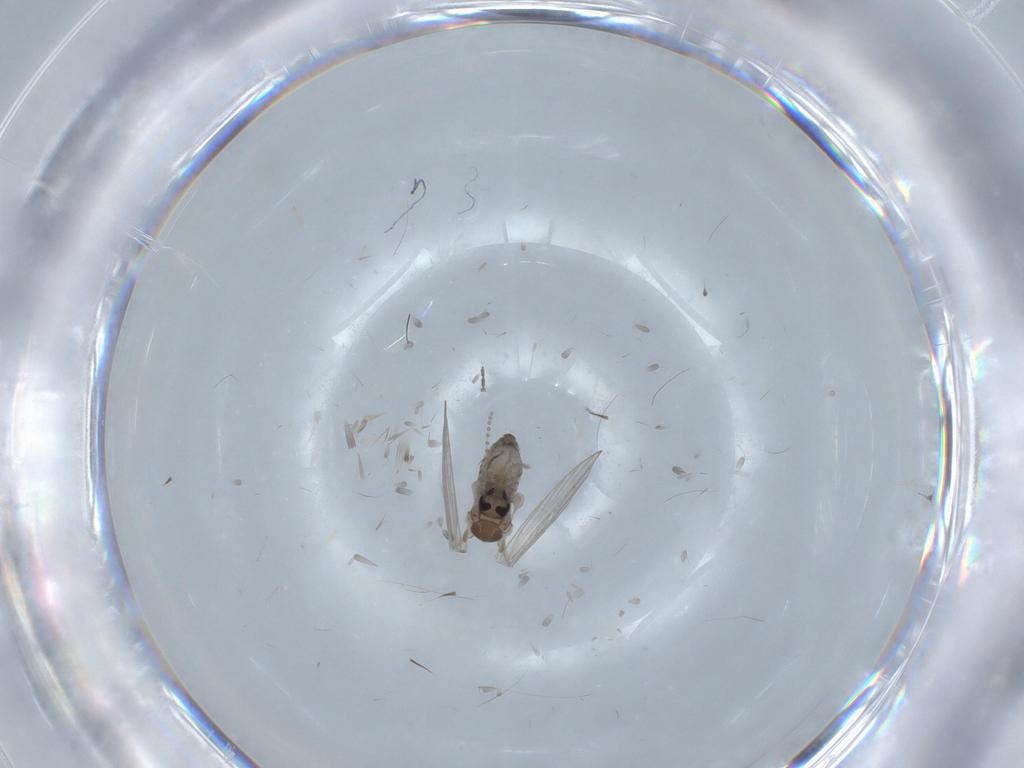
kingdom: Animalia
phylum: Arthropoda
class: Insecta
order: Diptera
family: Psychodidae
